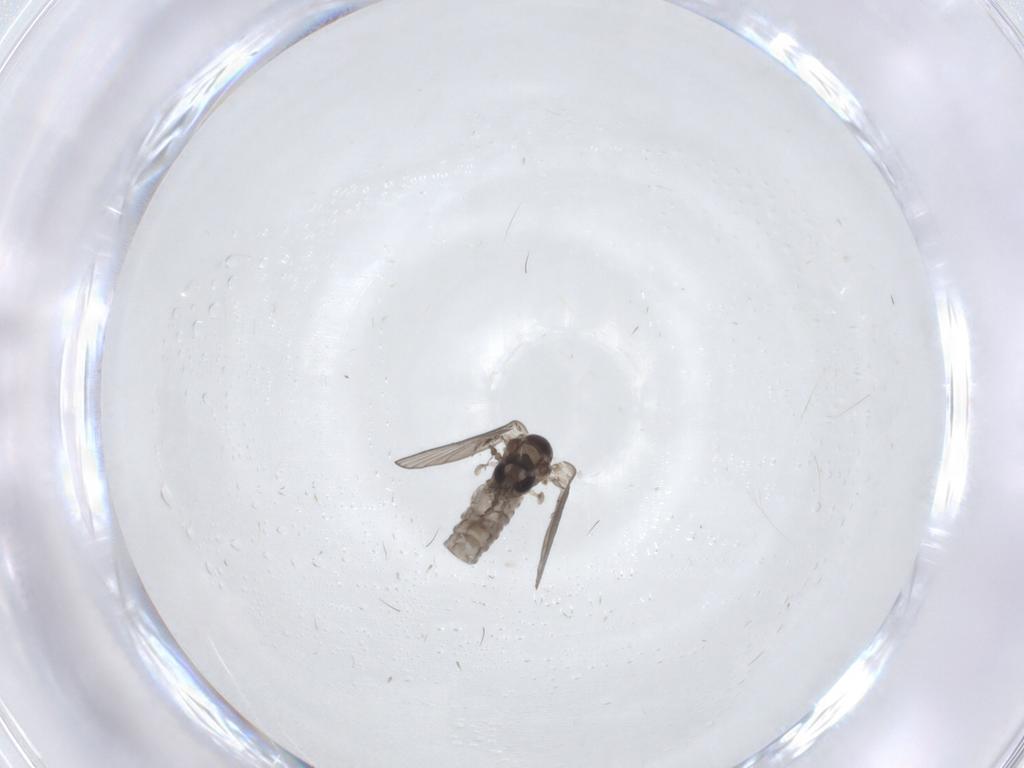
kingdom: Animalia
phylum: Arthropoda
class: Insecta
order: Diptera
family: Psychodidae
